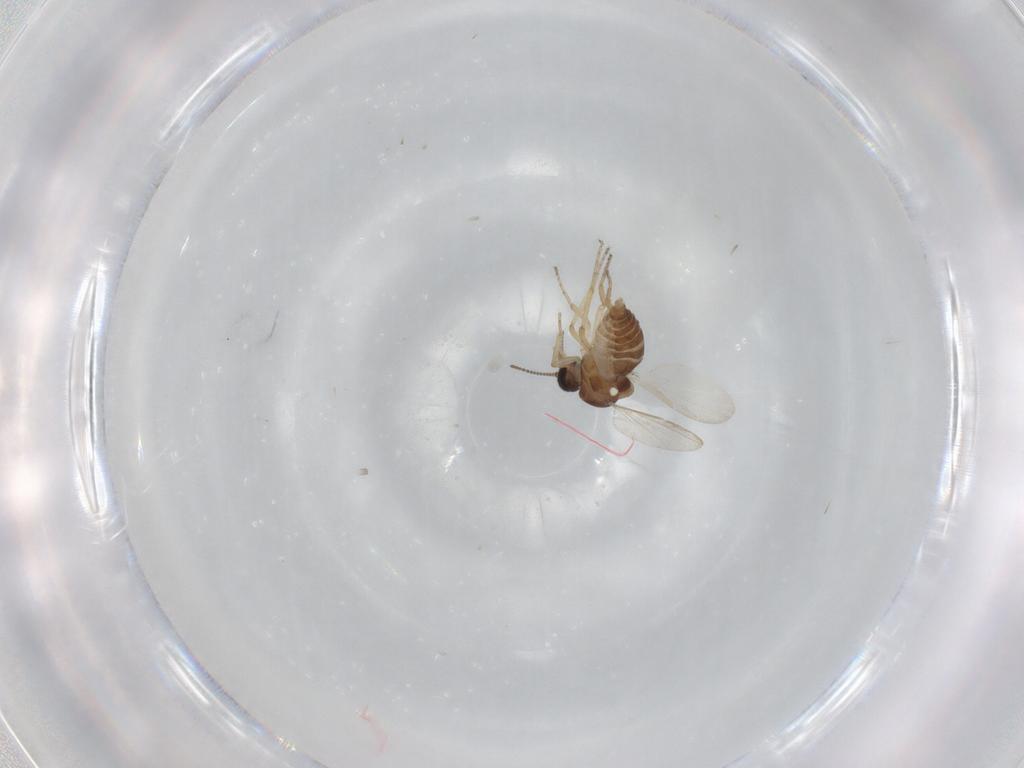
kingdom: Animalia
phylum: Arthropoda
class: Insecta
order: Diptera
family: Ceratopogonidae
